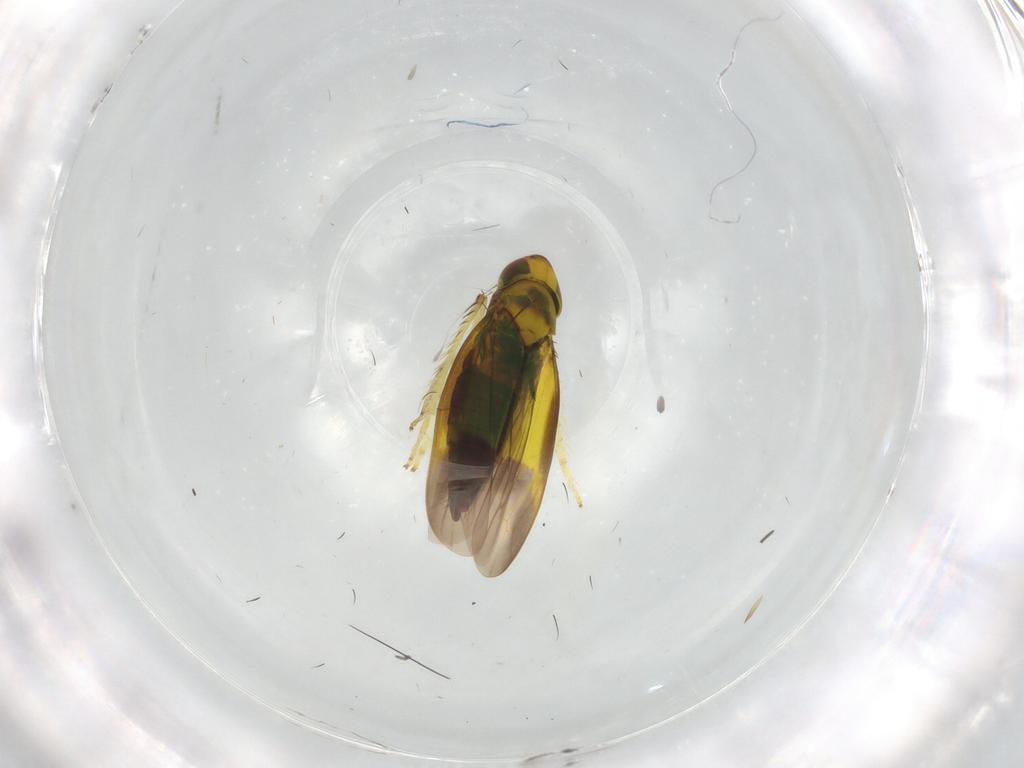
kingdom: Animalia
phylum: Arthropoda
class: Insecta
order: Hemiptera
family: Cicadellidae
